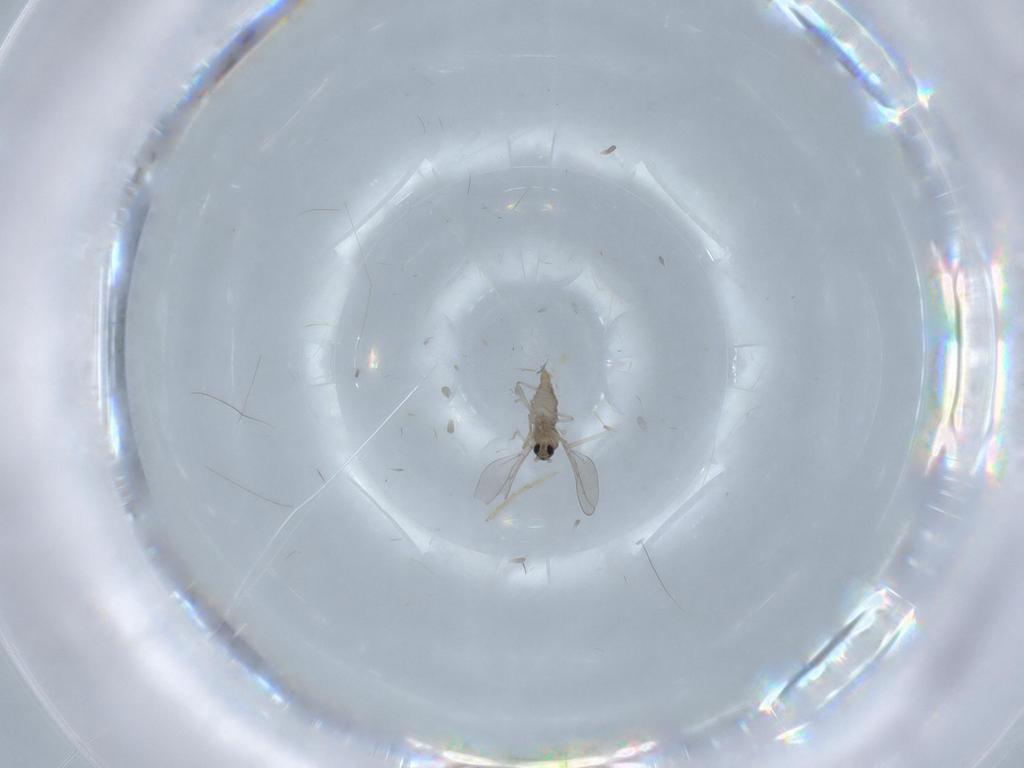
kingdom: Animalia
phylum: Arthropoda
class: Insecta
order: Diptera
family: Cecidomyiidae
